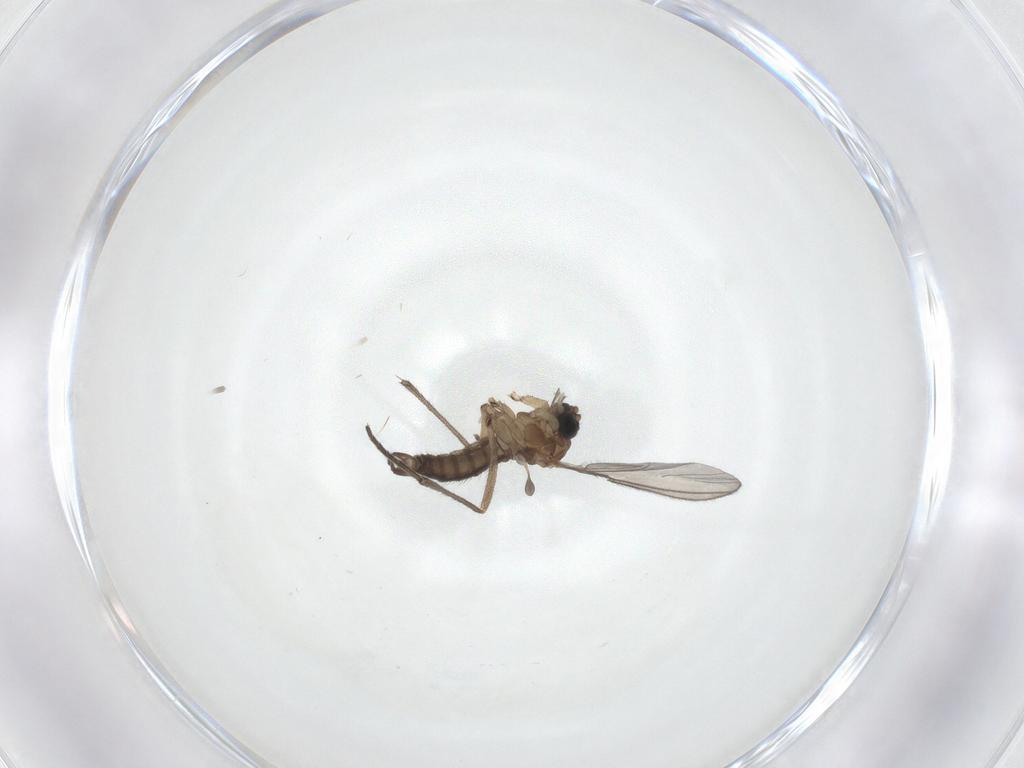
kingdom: Animalia
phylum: Arthropoda
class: Insecta
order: Diptera
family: Sciaridae
